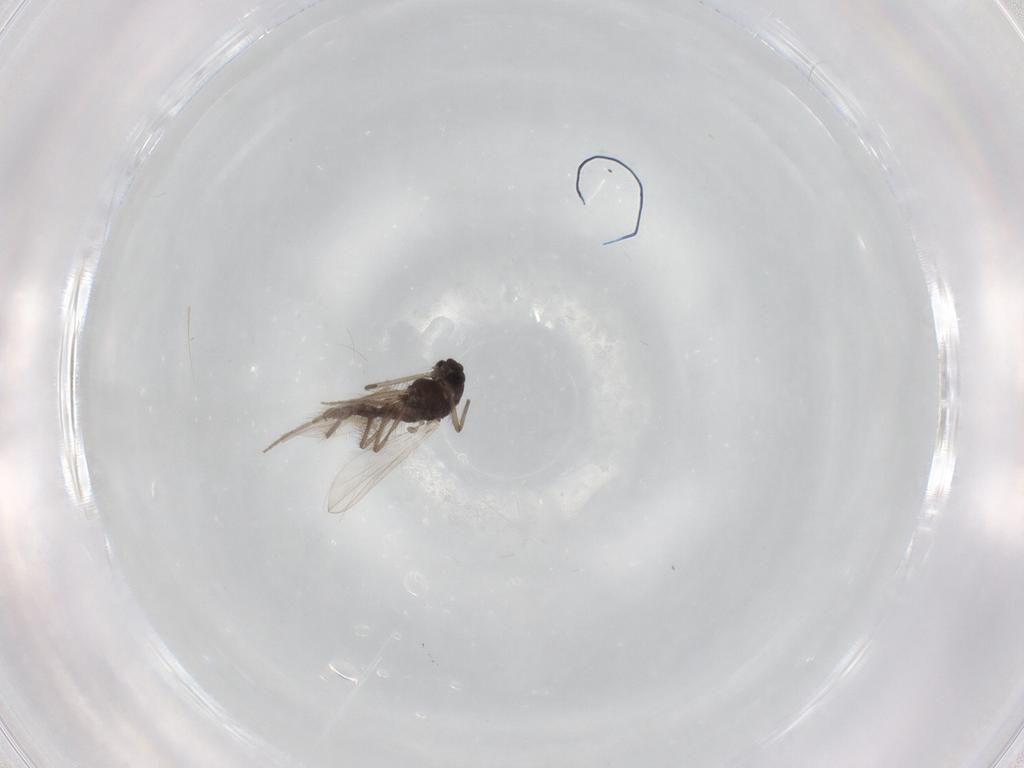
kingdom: Animalia
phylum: Arthropoda
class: Insecta
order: Diptera
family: Chironomidae
